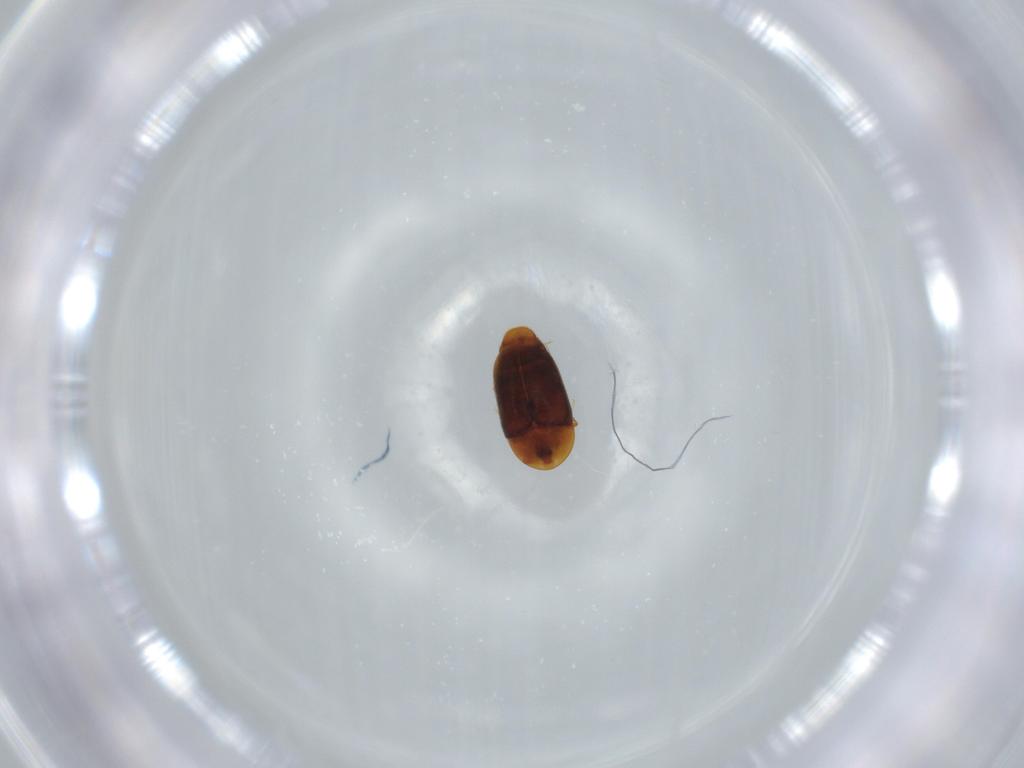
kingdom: Animalia
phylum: Arthropoda
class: Insecta
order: Coleoptera
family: Corylophidae
